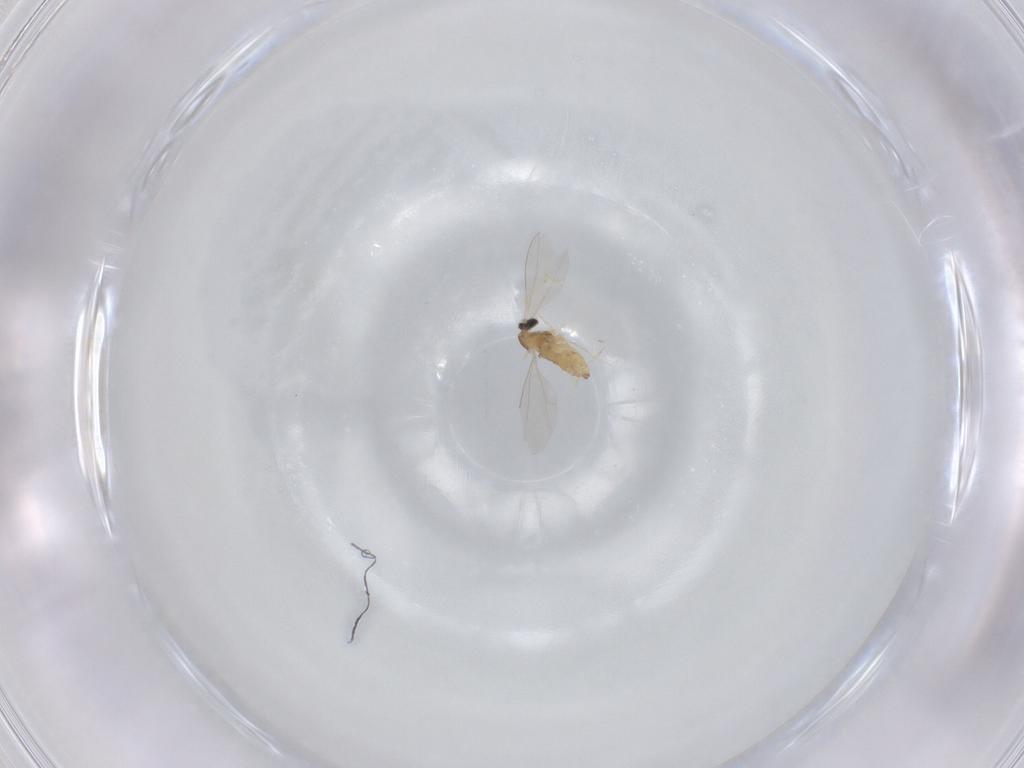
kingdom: Animalia
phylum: Arthropoda
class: Insecta
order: Diptera
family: Cecidomyiidae
